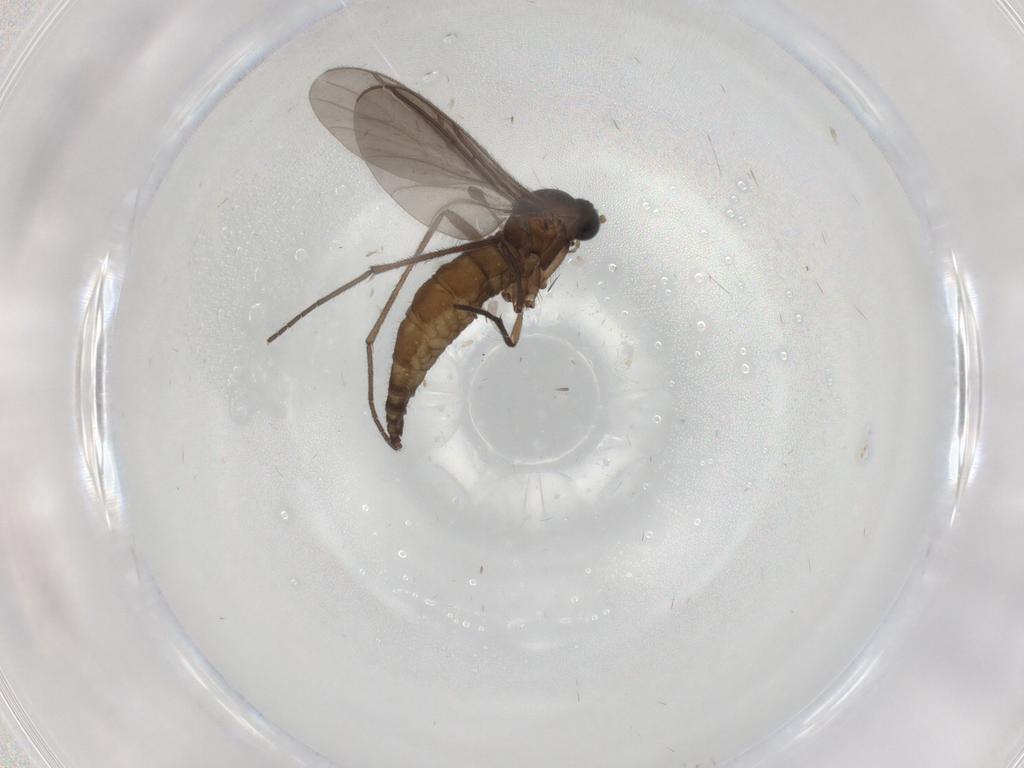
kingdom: Animalia
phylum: Arthropoda
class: Insecta
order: Diptera
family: Sciaridae
